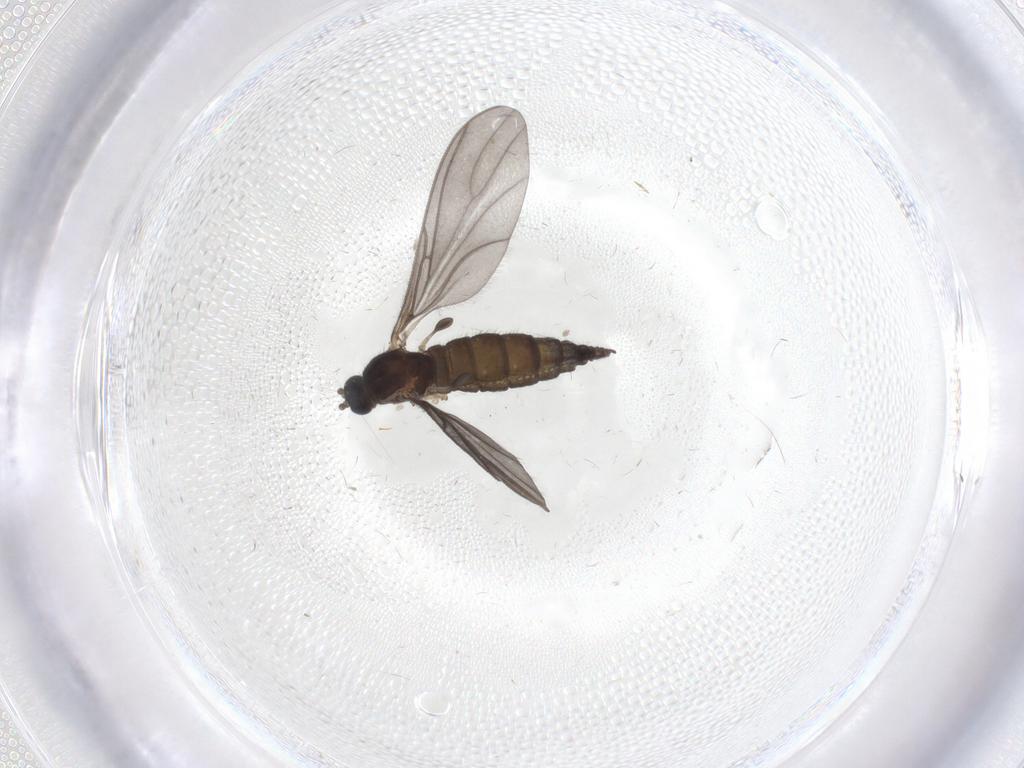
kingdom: Animalia
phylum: Arthropoda
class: Insecta
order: Diptera
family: Sciaridae
